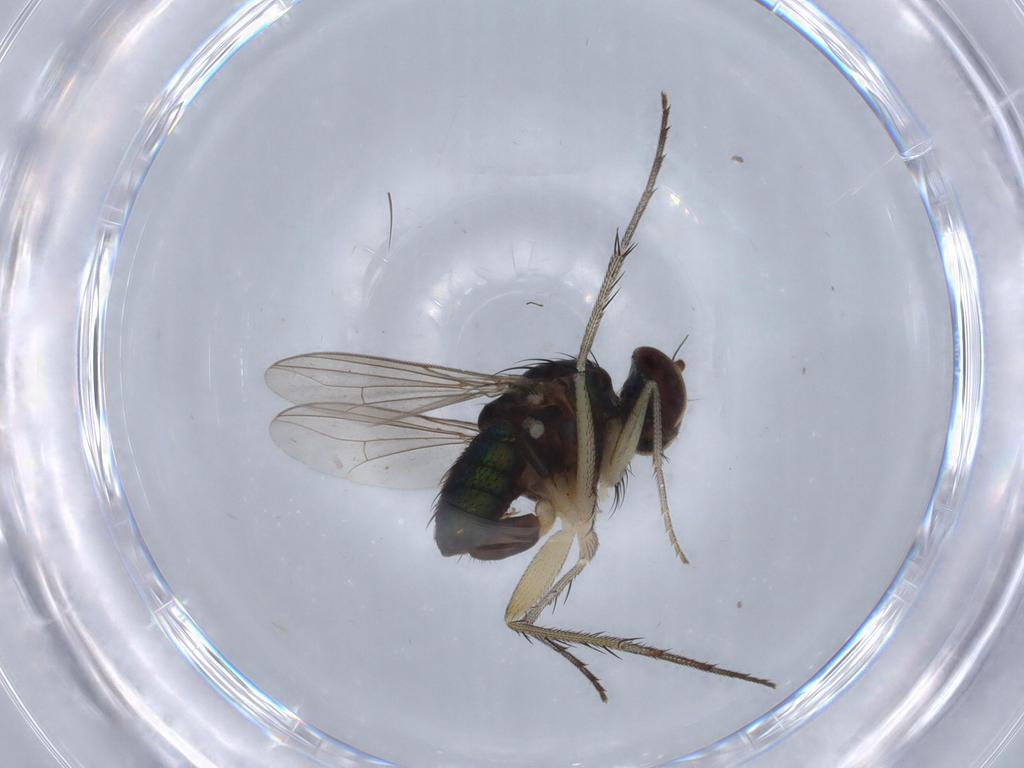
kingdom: Animalia
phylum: Arthropoda
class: Insecta
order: Diptera
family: Dolichopodidae
